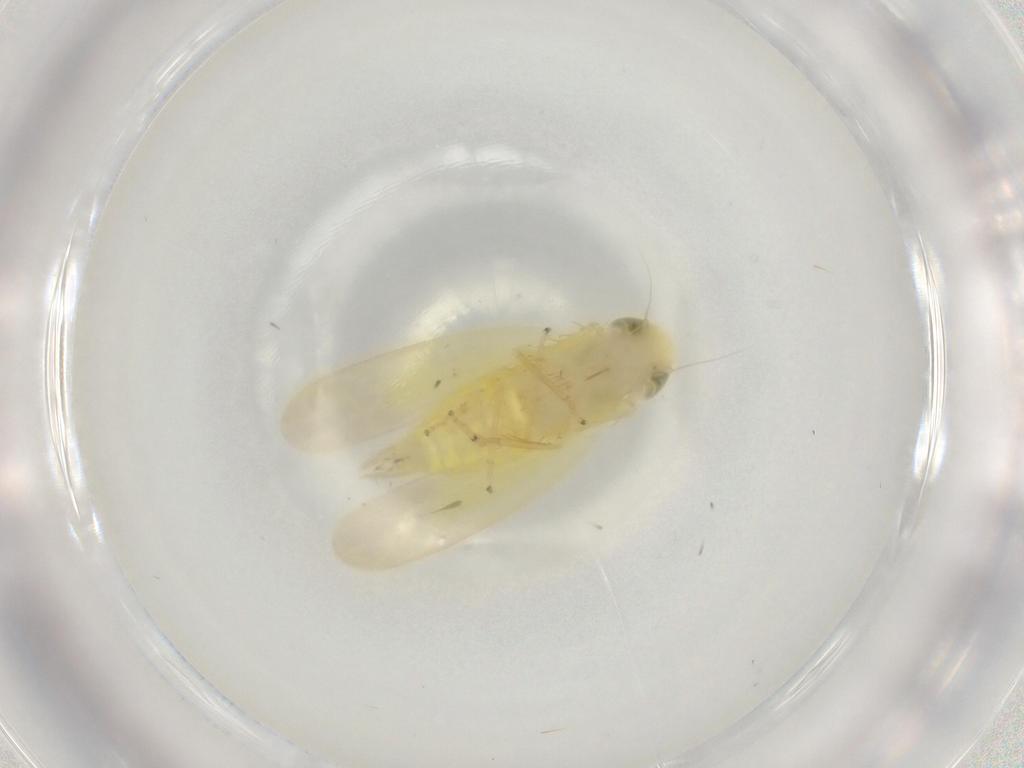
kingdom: Animalia
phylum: Arthropoda
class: Insecta
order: Hemiptera
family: Cicadellidae
